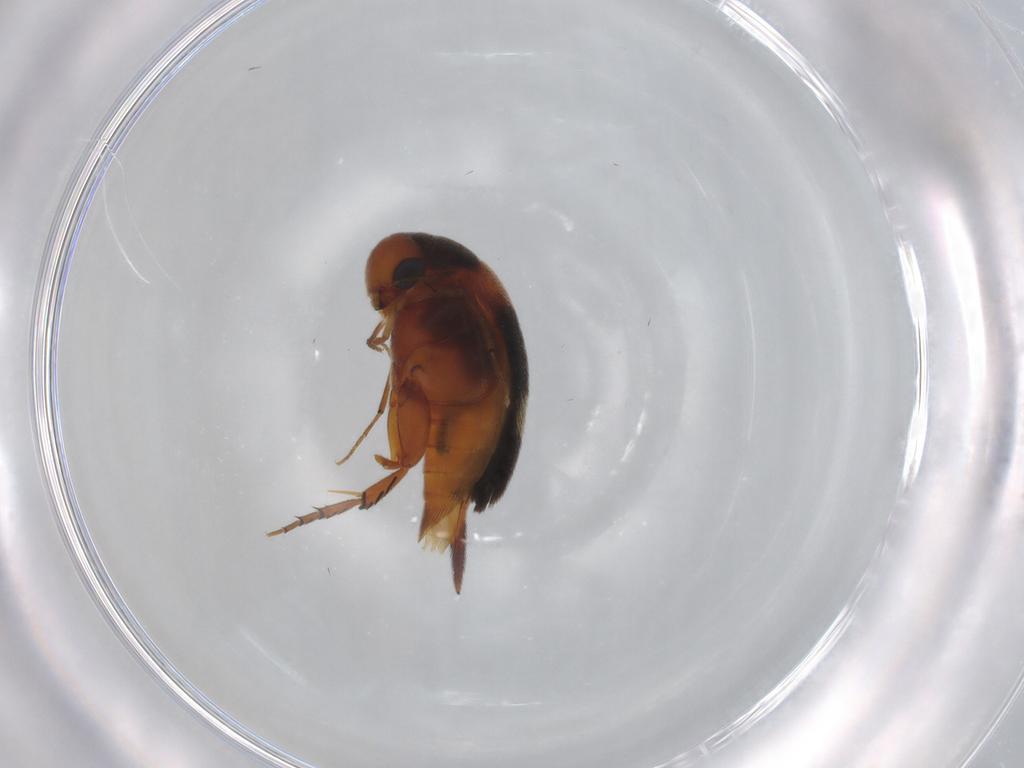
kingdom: Animalia
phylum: Arthropoda
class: Insecta
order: Coleoptera
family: Mordellidae
